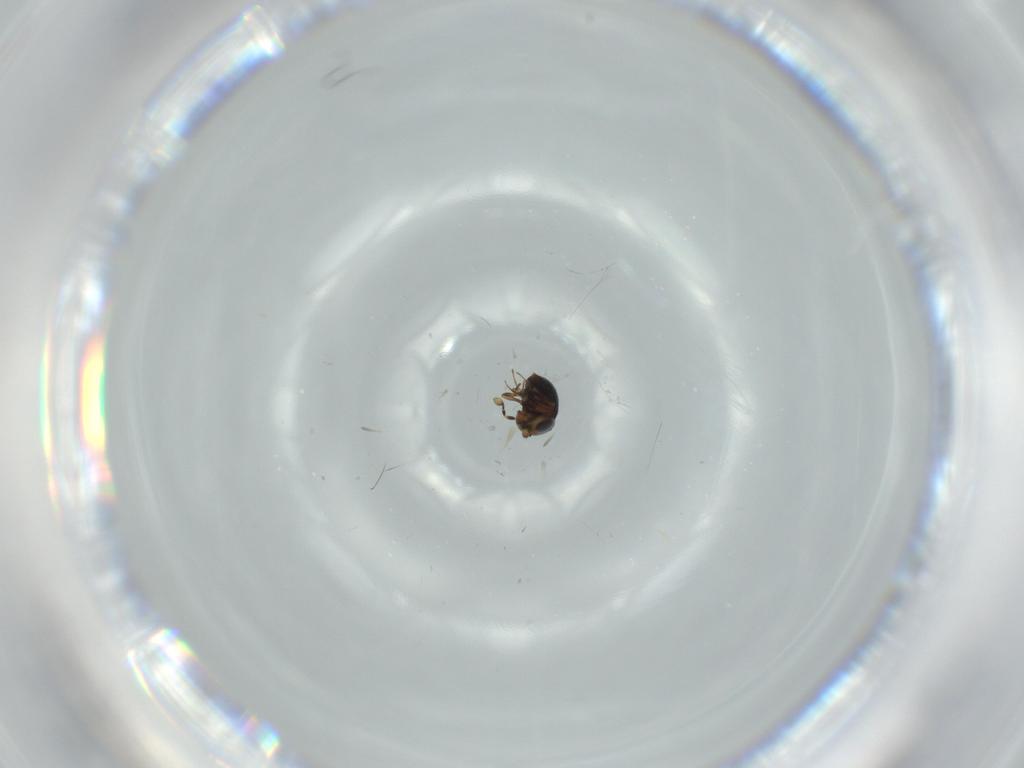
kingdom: Animalia
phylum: Arthropoda
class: Insecta
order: Hymenoptera
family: Scelionidae
